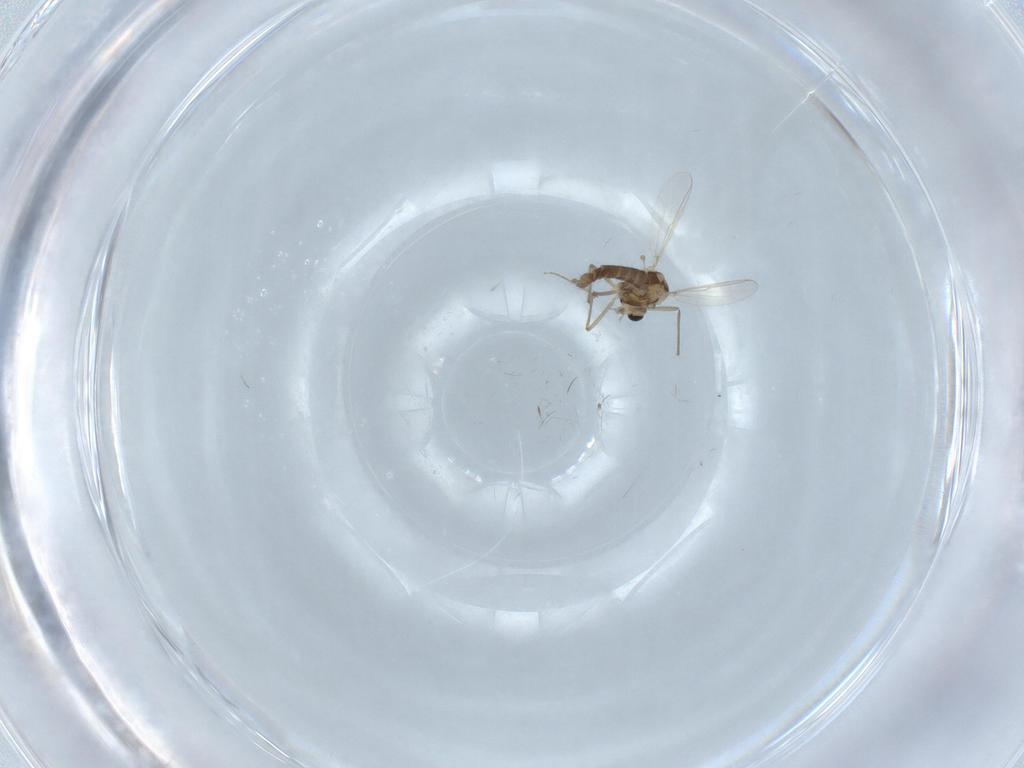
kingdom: Animalia
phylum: Arthropoda
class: Insecta
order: Diptera
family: Chironomidae
